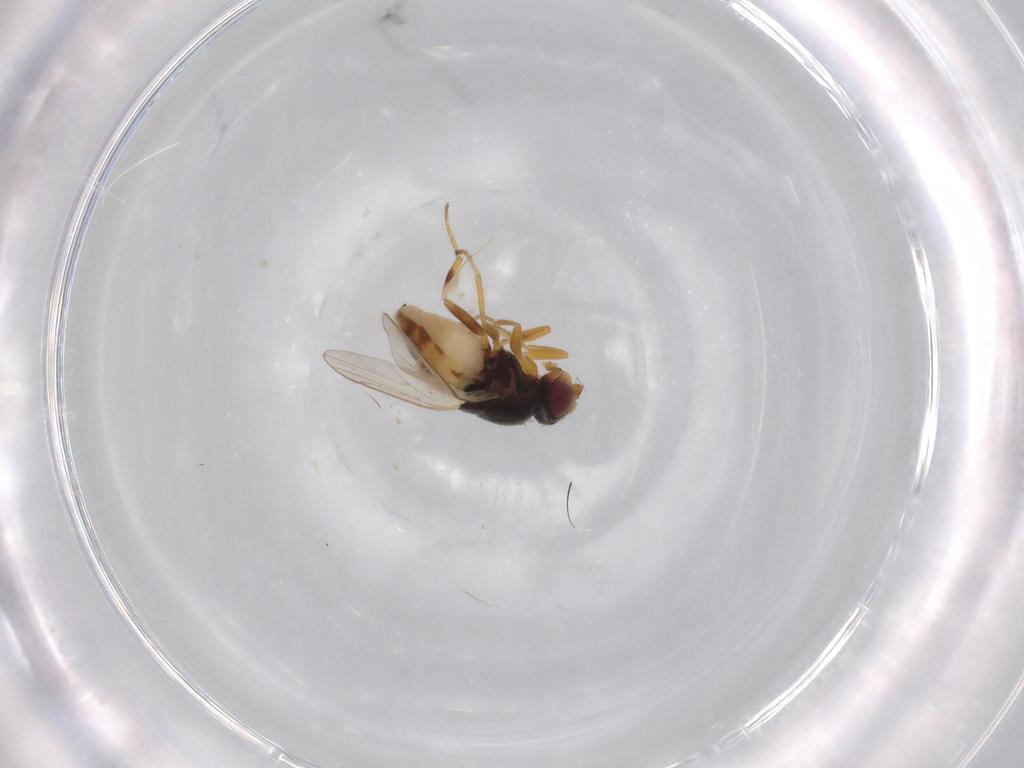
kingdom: Animalia
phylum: Arthropoda
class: Insecta
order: Diptera
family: Chloropidae
